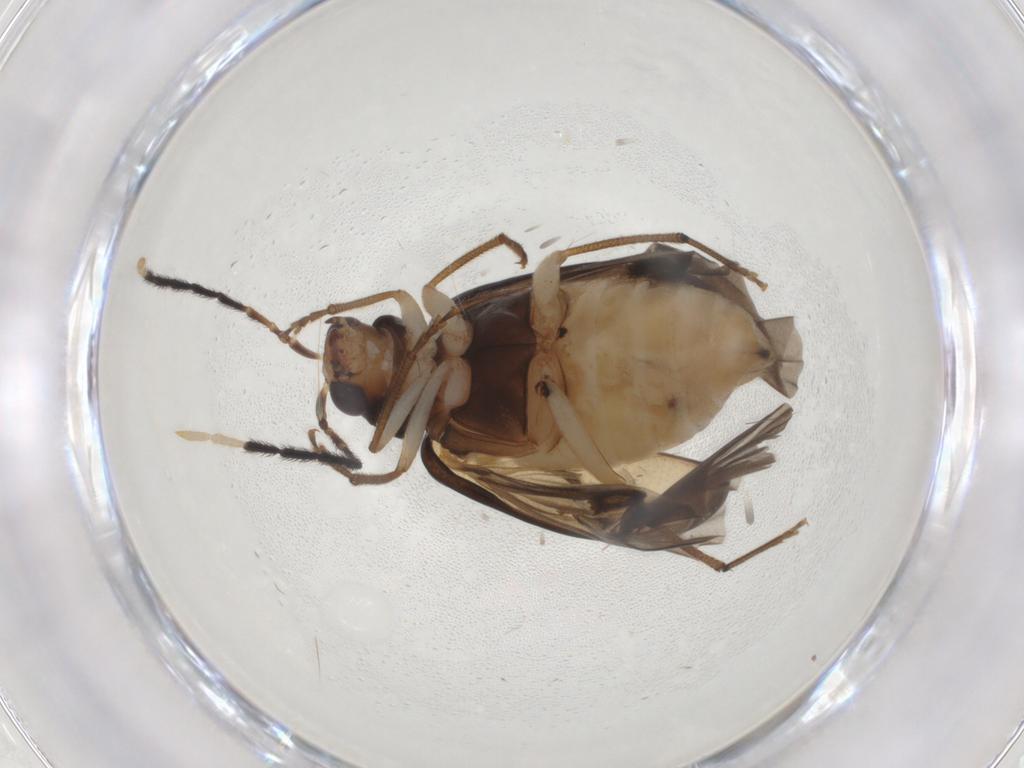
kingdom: Animalia
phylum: Arthropoda
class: Insecta
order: Coleoptera
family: Chrysomelidae
